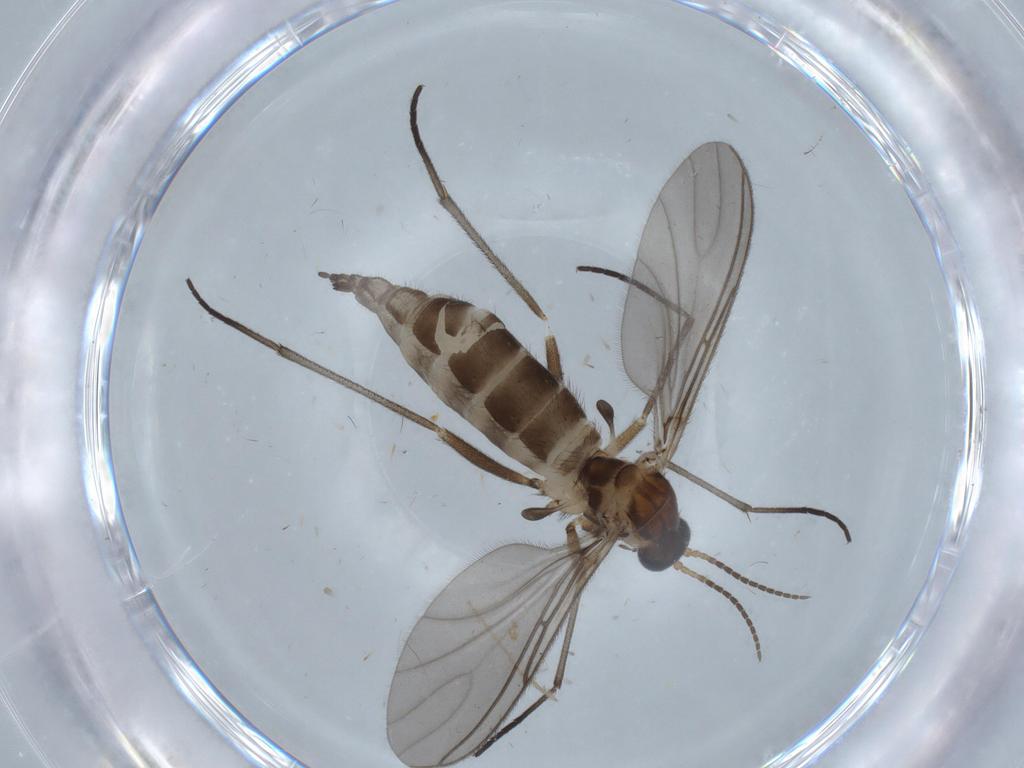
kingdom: Animalia
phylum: Arthropoda
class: Insecta
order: Diptera
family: Sciaridae
